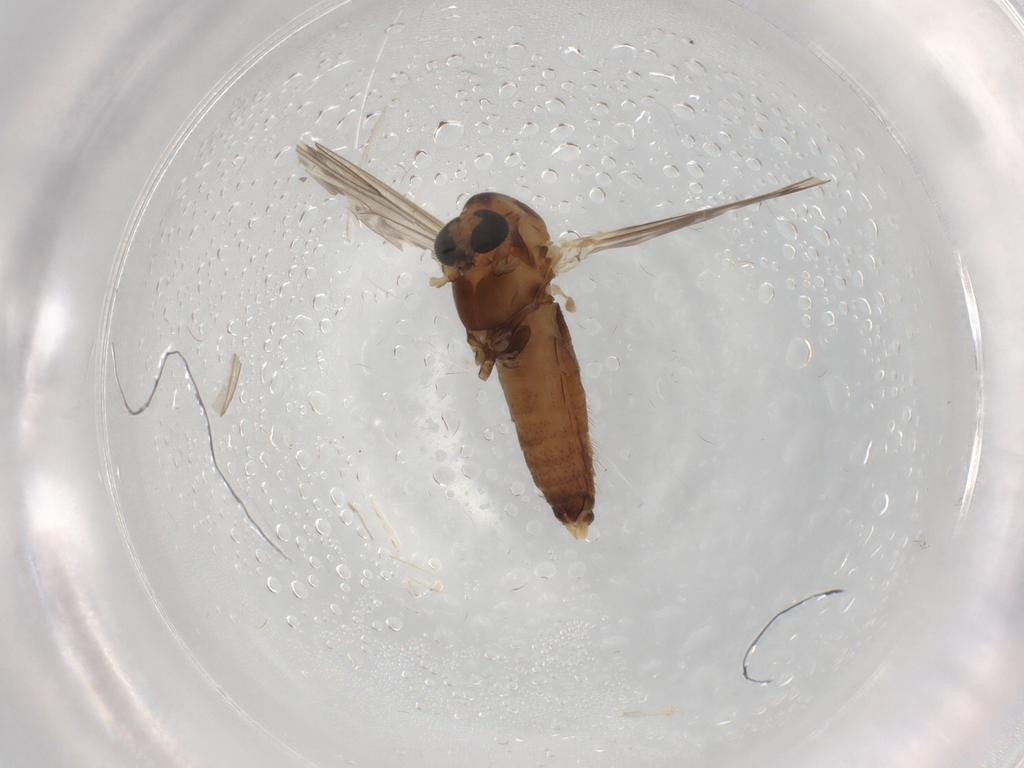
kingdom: Animalia
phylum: Arthropoda
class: Insecta
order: Diptera
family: Chironomidae
